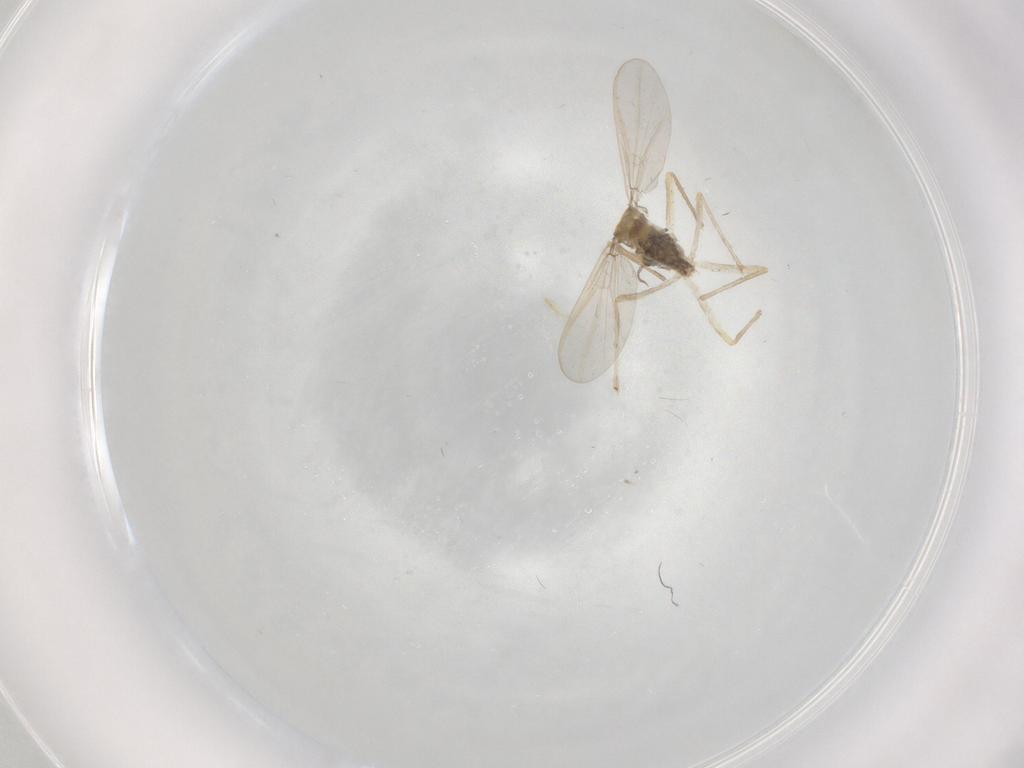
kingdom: Animalia
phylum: Arthropoda
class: Insecta
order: Diptera
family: Chironomidae
